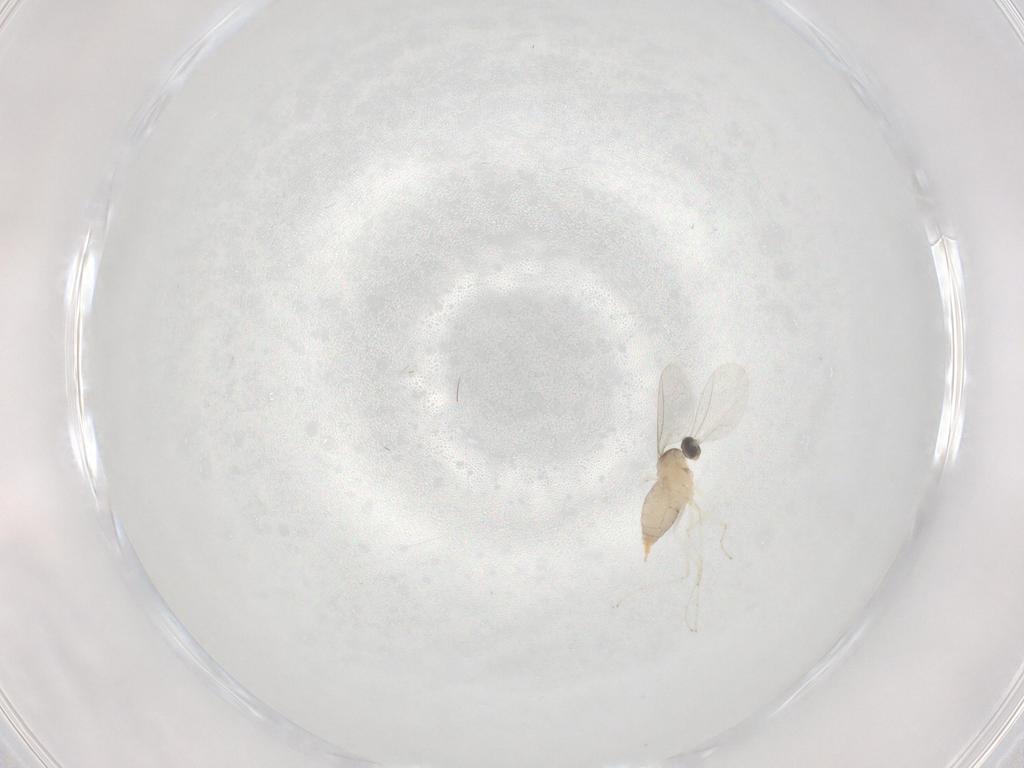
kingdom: Animalia
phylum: Arthropoda
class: Insecta
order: Diptera
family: Cecidomyiidae
